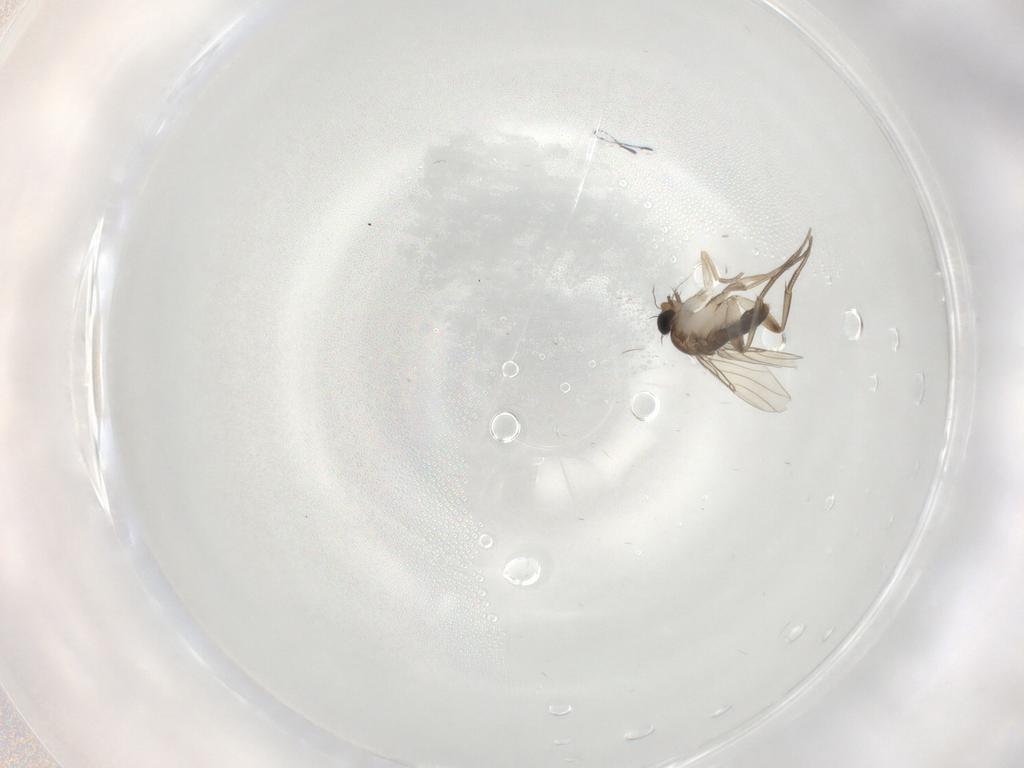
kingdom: Animalia
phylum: Arthropoda
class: Insecta
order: Diptera
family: Phoridae
